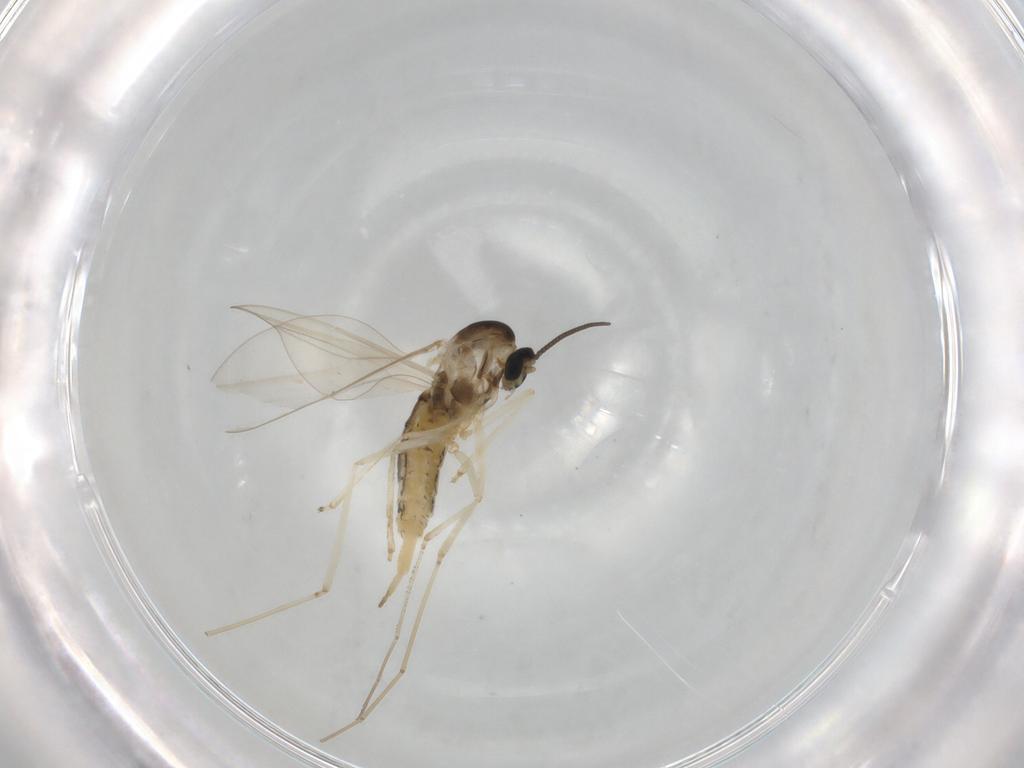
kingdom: Animalia
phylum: Arthropoda
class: Insecta
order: Diptera
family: Cecidomyiidae
